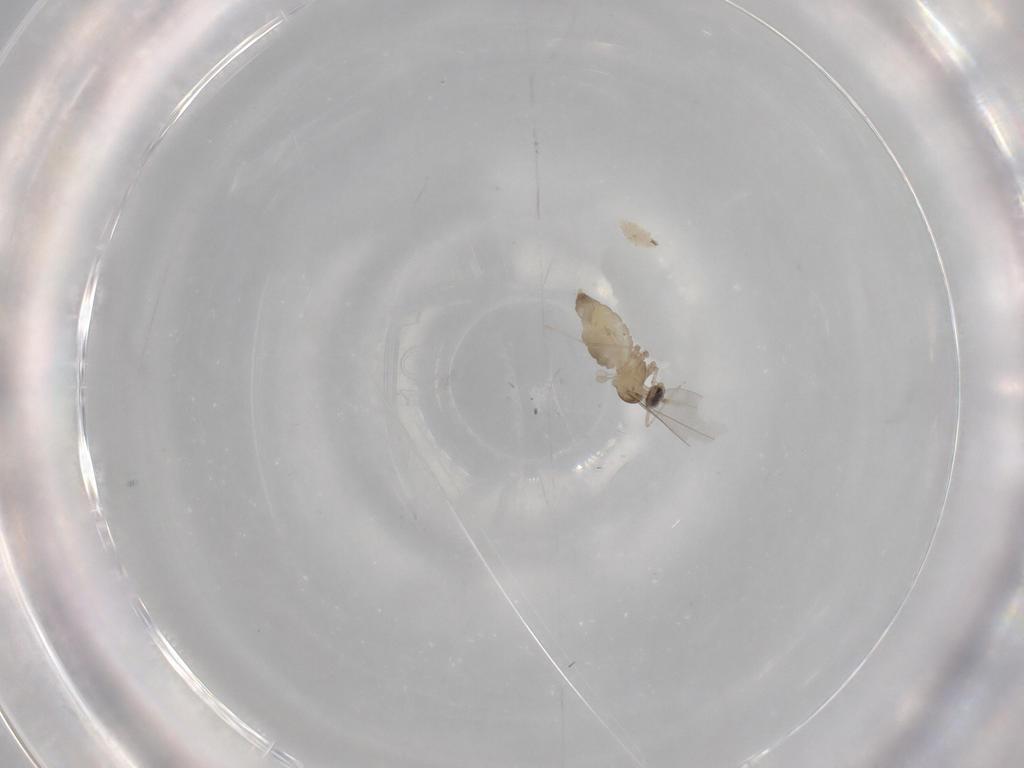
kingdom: Animalia
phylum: Arthropoda
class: Insecta
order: Diptera
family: Cecidomyiidae
